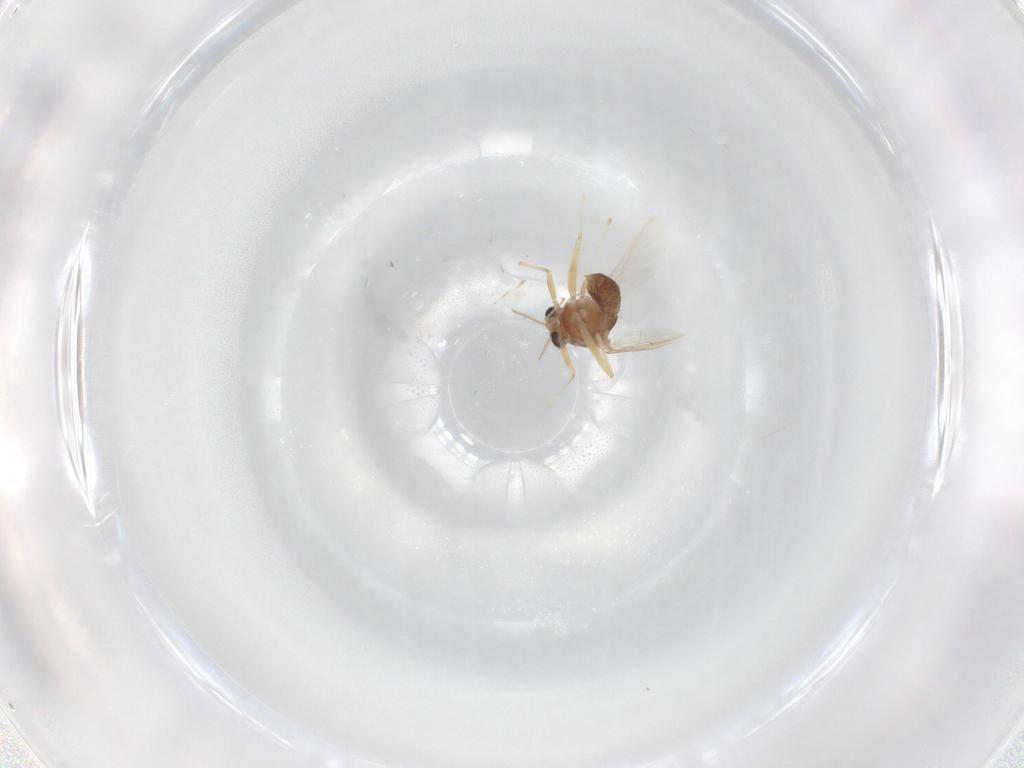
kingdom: Animalia
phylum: Arthropoda
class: Insecta
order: Diptera
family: Chironomidae
